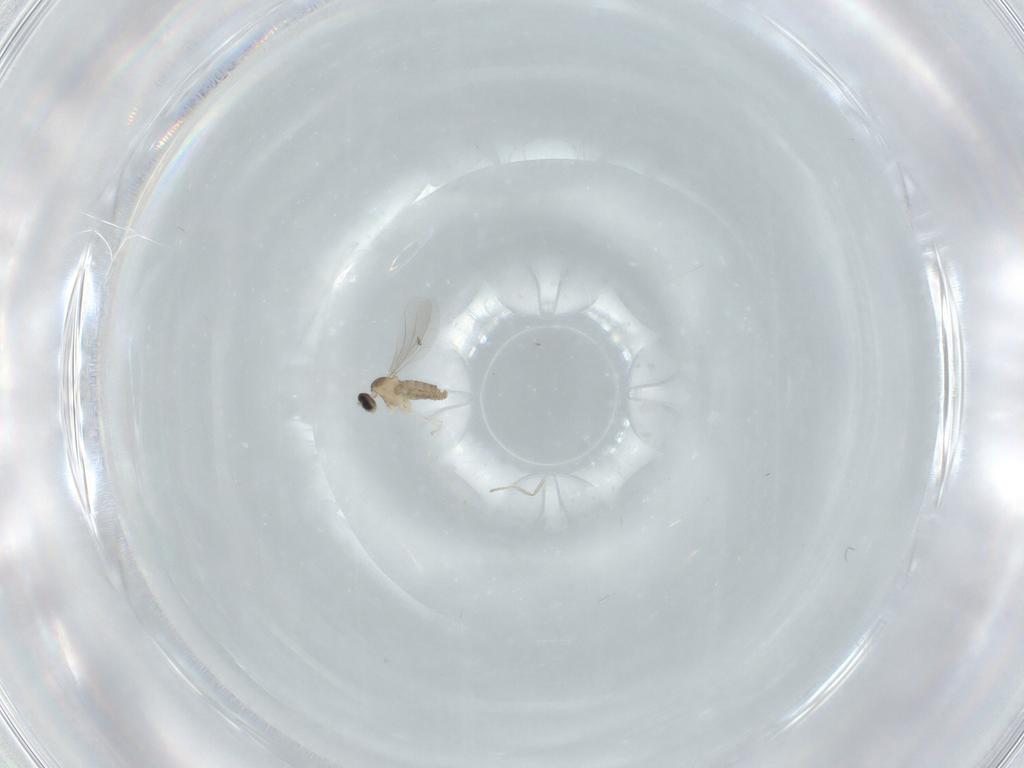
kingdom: Animalia
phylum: Arthropoda
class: Insecta
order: Diptera
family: Cecidomyiidae
